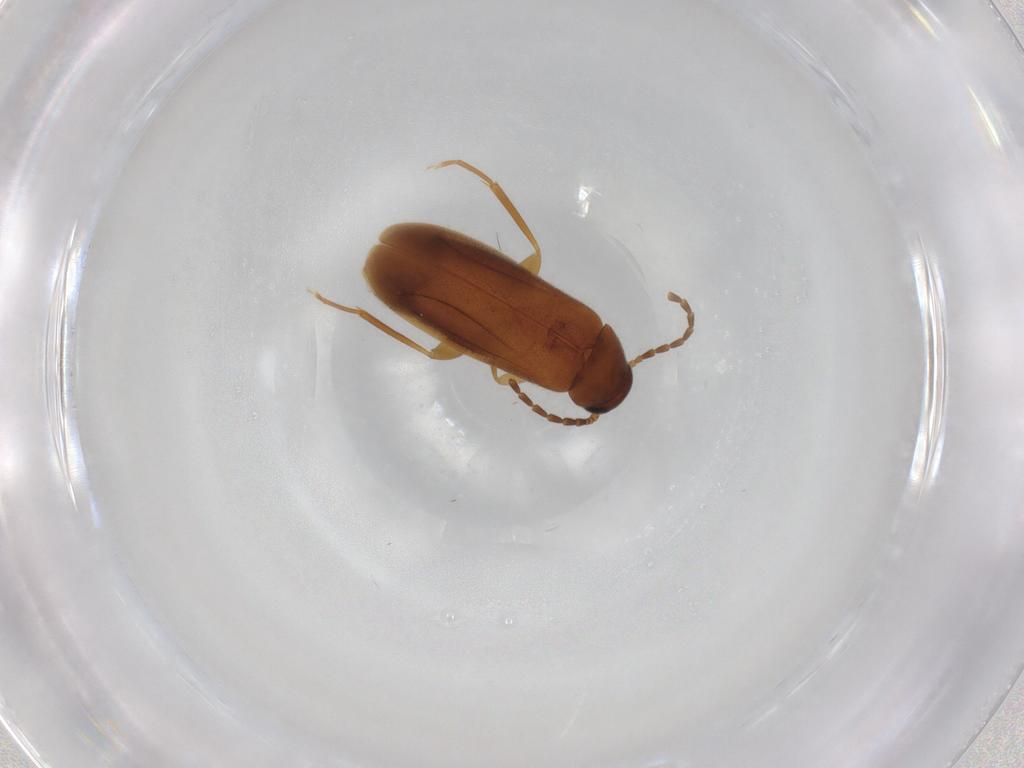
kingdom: Animalia
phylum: Arthropoda
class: Insecta
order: Coleoptera
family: Scraptiidae
